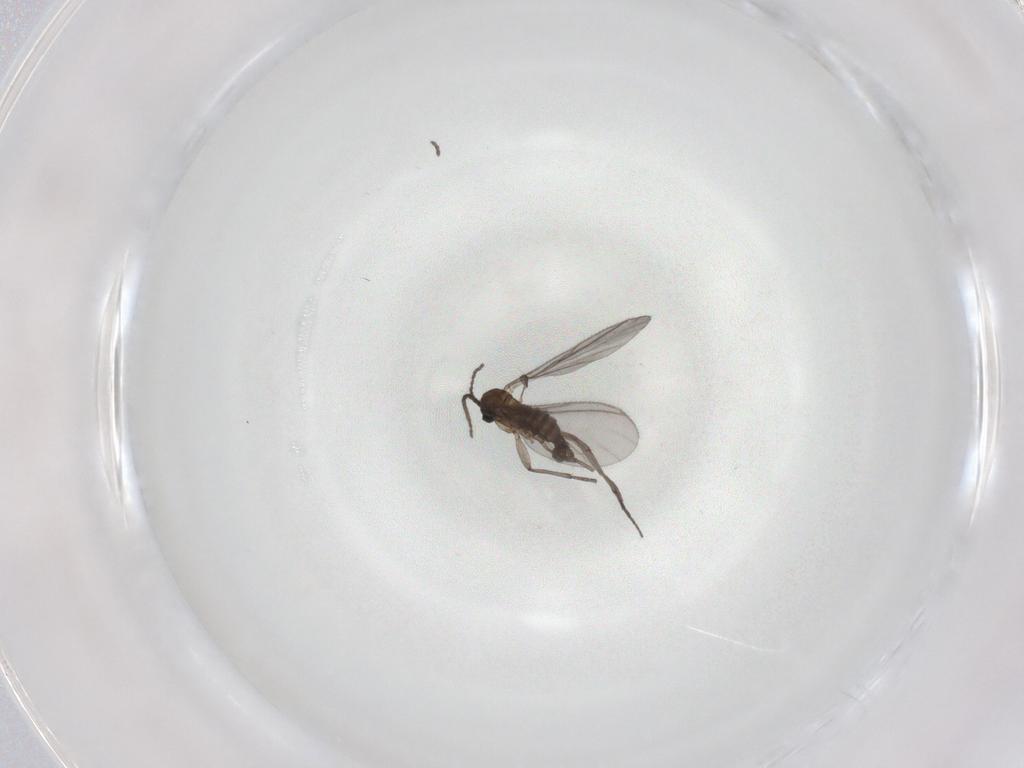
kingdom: Animalia
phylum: Arthropoda
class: Insecta
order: Diptera
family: Sciaridae
